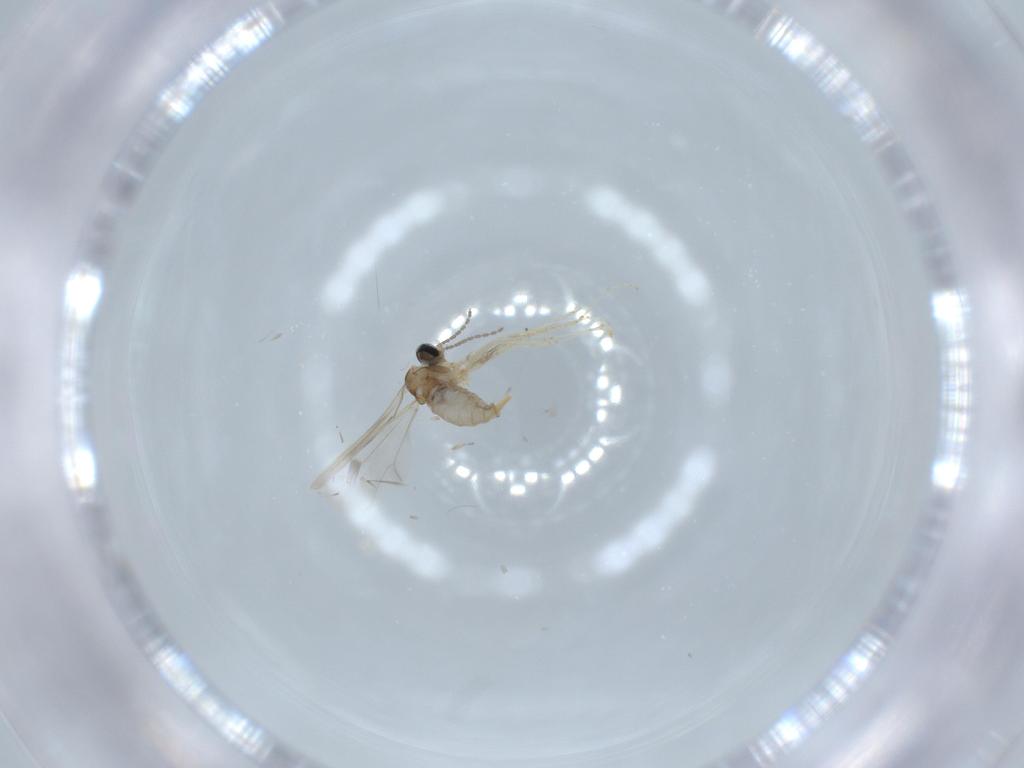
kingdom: Animalia
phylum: Arthropoda
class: Insecta
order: Diptera
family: Cecidomyiidae
